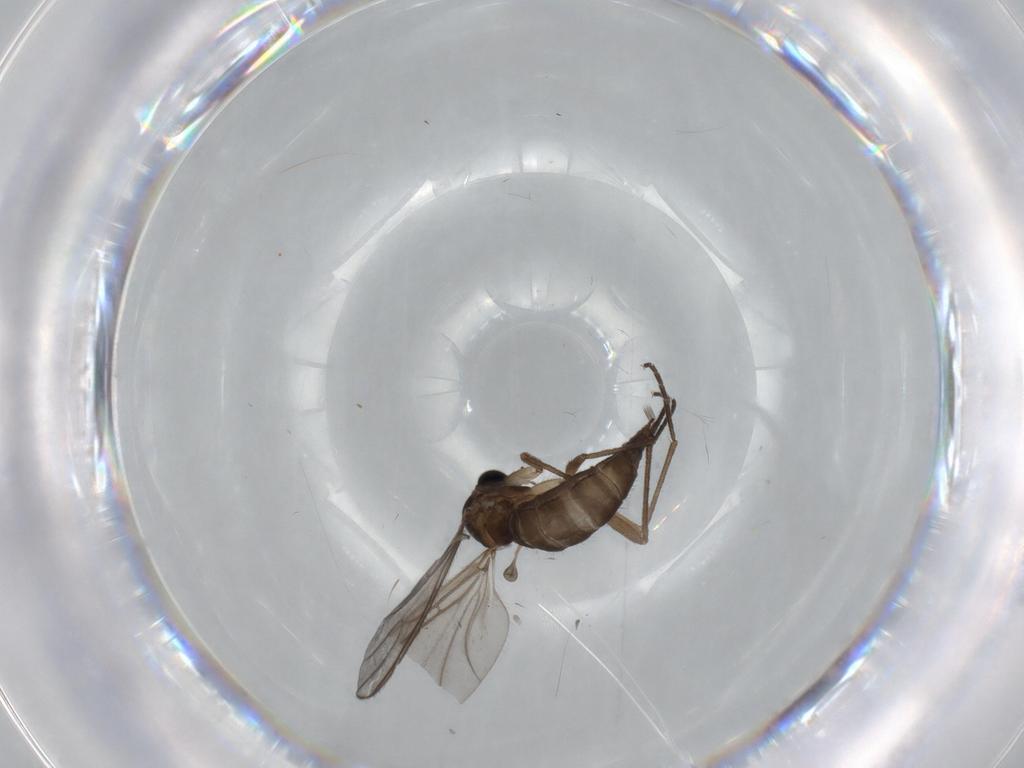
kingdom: Animalia
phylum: Arthropoda
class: Insecta
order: Diptera
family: Sciaridae
